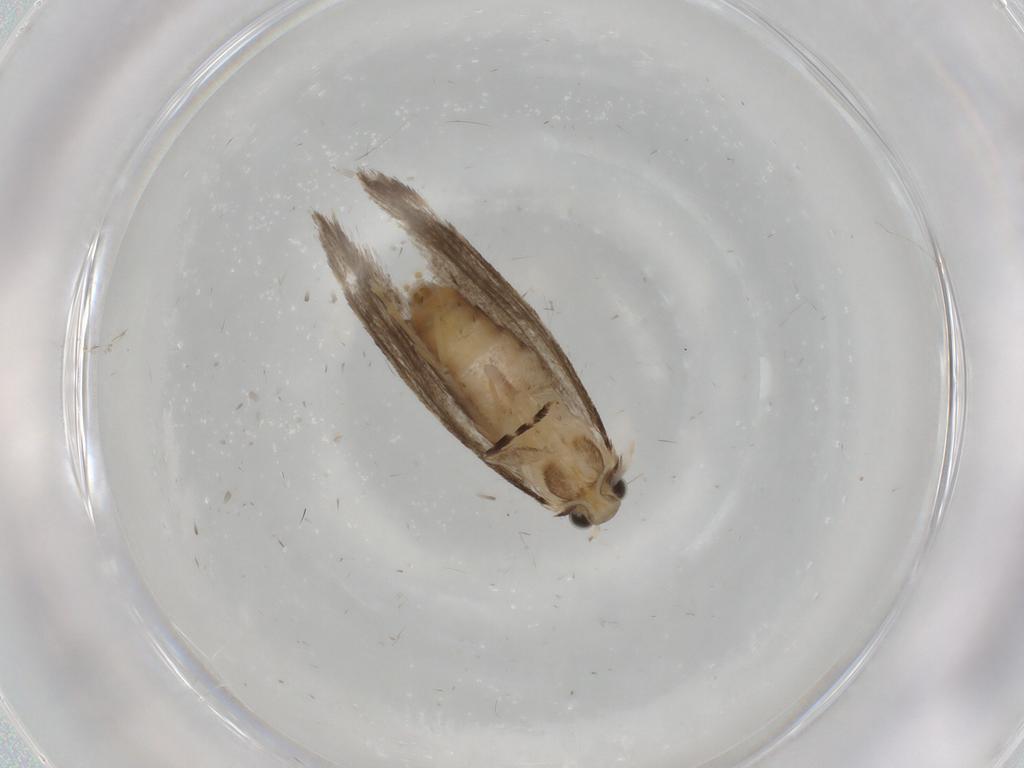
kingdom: Animalia
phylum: Arthropoda
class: Insecta
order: Lepidoptera
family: Tineidae
